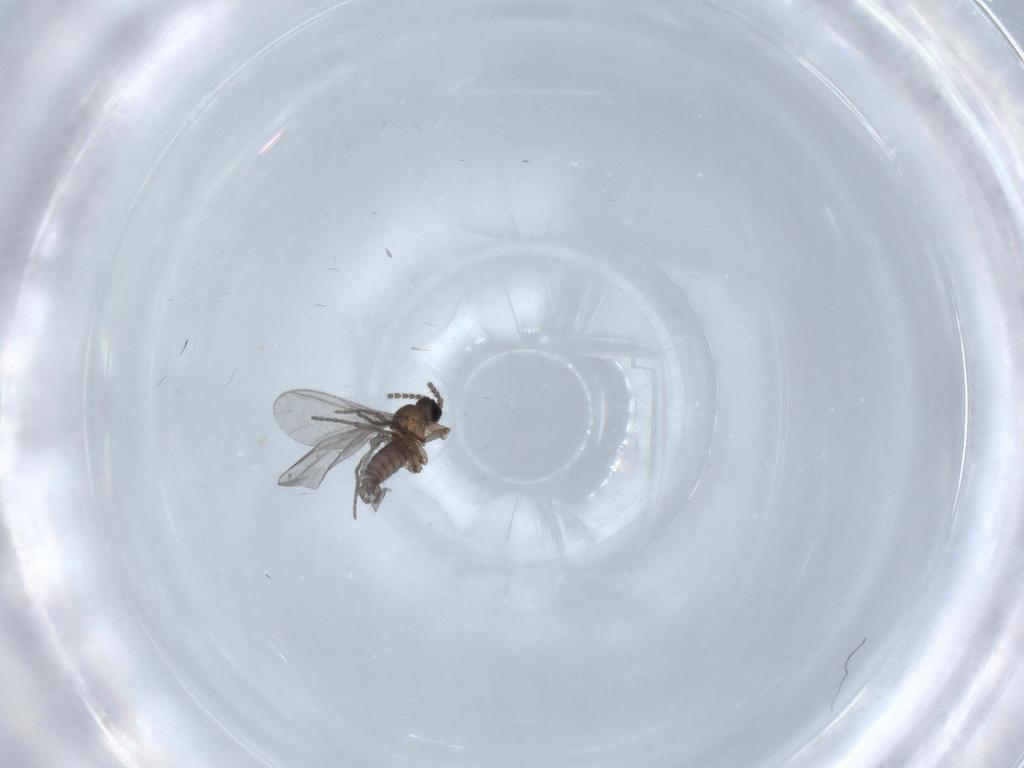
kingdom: Animalia
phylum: Arthropoda
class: Insecta
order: Diptera
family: Sciaridae
